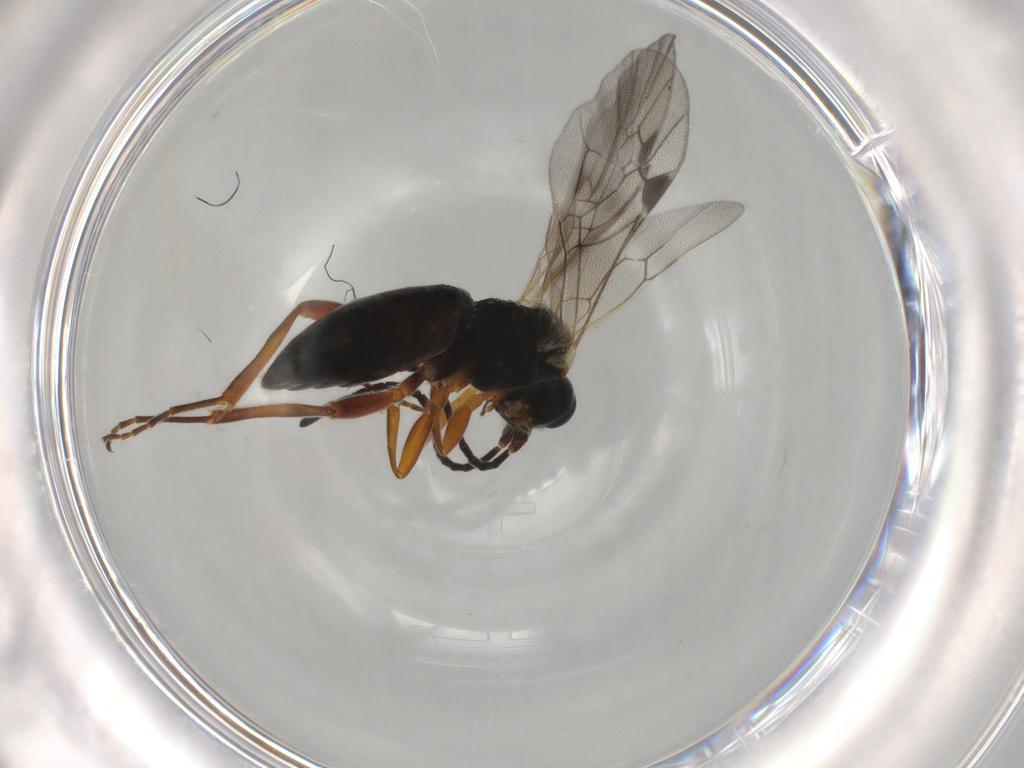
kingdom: Animalia
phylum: Arthropoda
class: Insecta
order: Hymenoptera
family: Ichneumonidae
